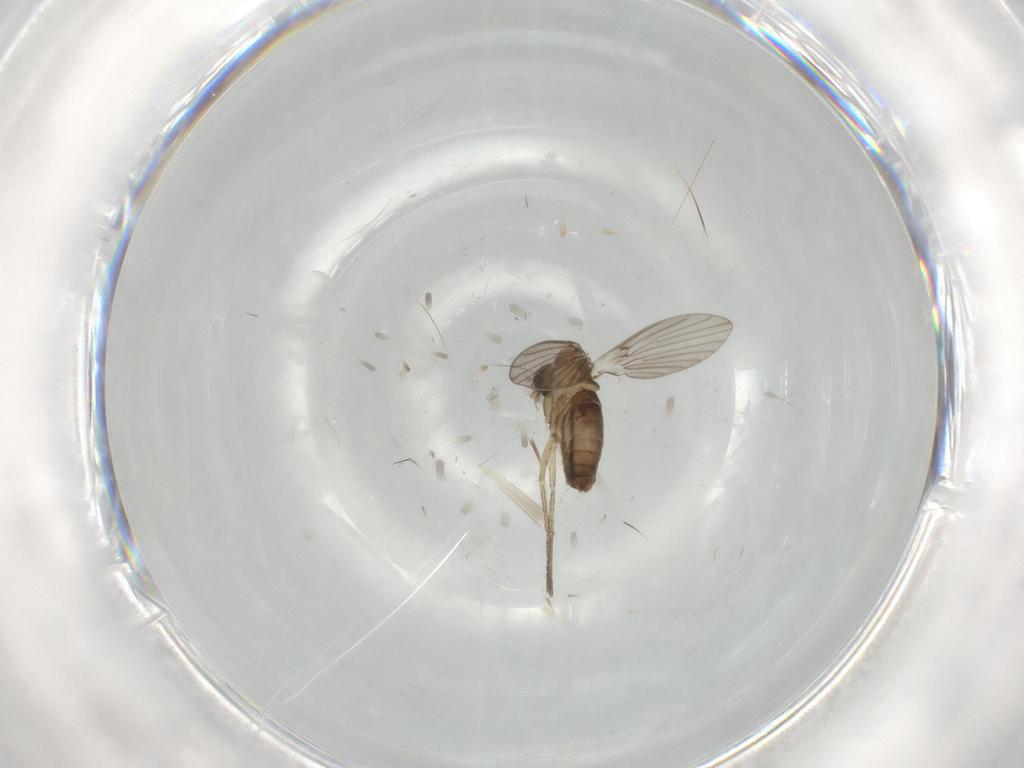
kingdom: Animalia
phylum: Arthropoda
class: Insecta
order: Diptera
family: Psychodidae
